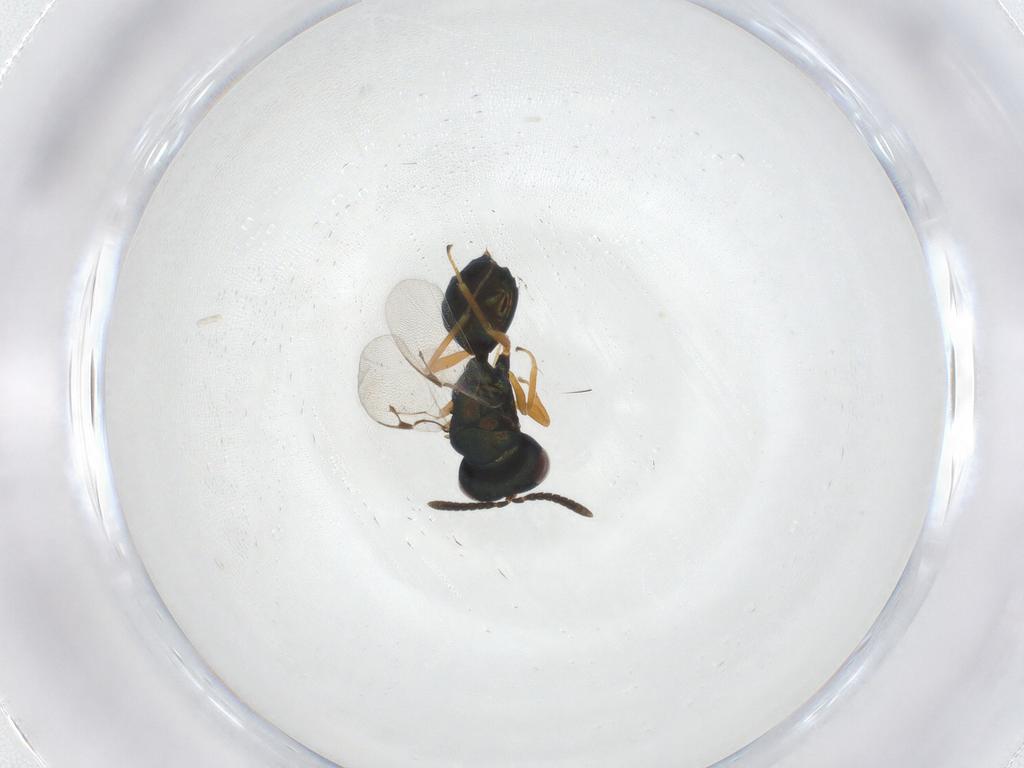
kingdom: Animalia
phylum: Arthropoda
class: Insecta
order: Hymenoptera
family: Pteromalidae
